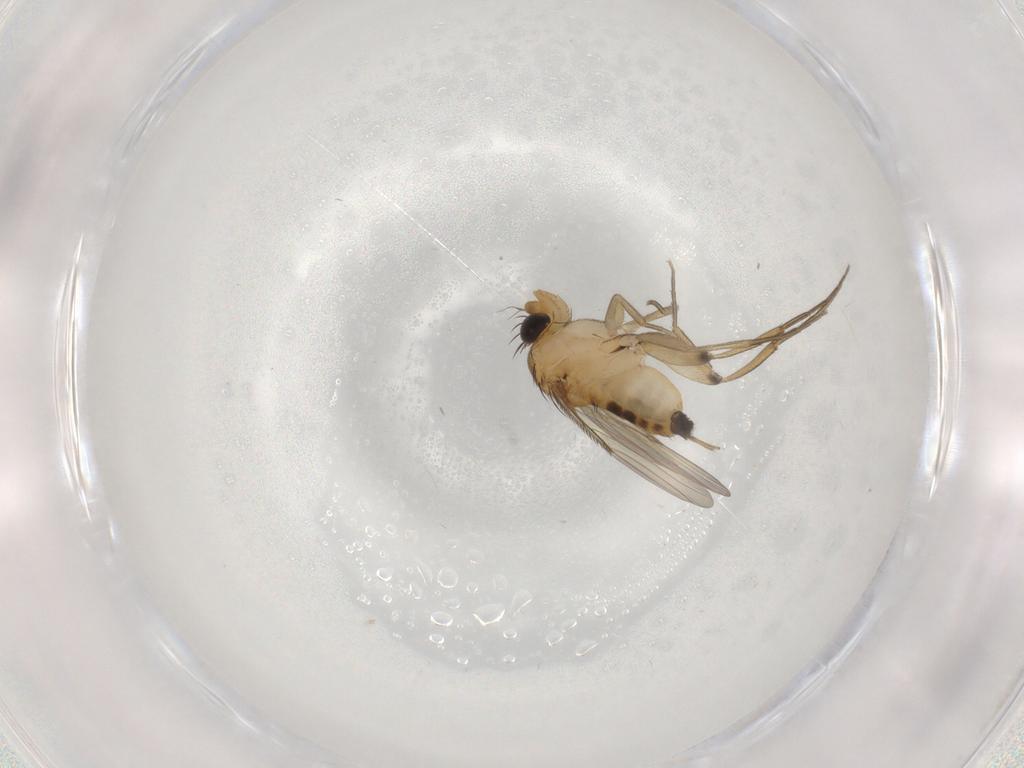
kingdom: Animalia
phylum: Arthropoda
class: Insecta
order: Diptera
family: Phoridae
